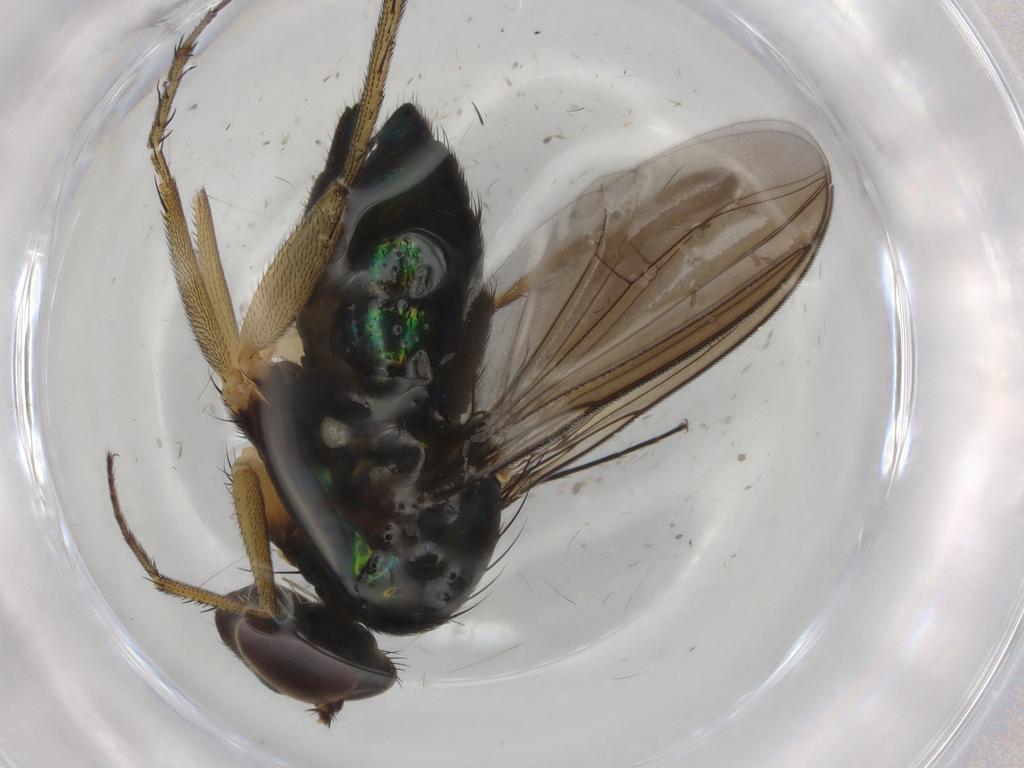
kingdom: Animalia
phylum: Arthropoda
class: Insecta
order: Diptera
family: Dolichopodidae
